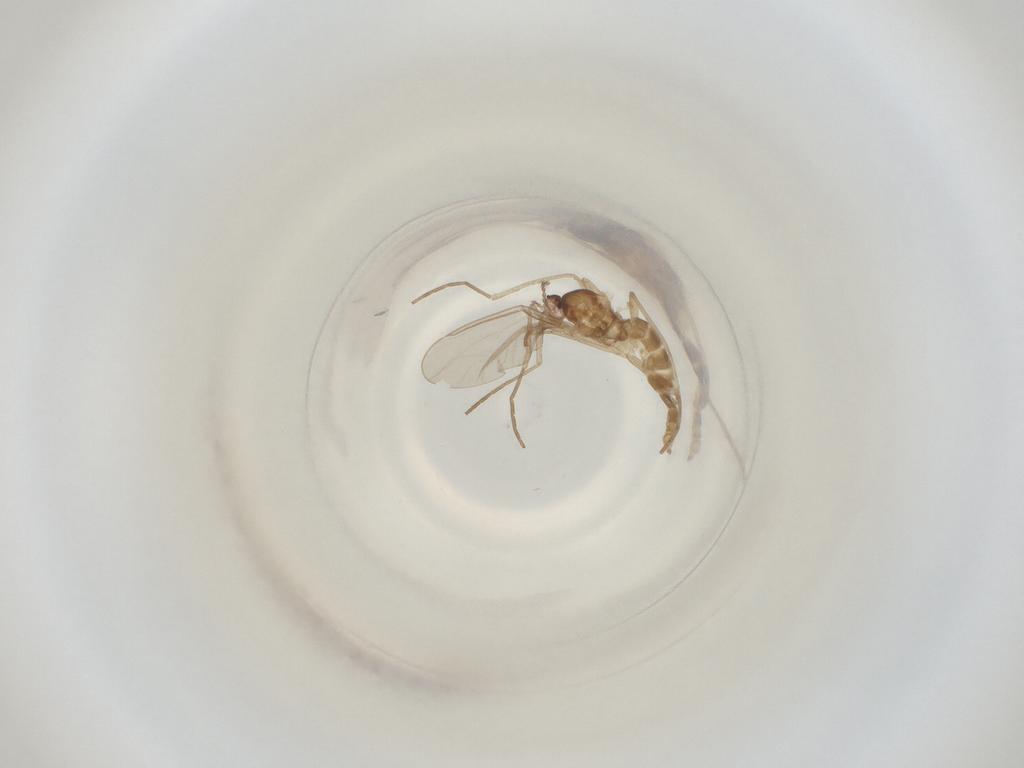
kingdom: Animalia
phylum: Arthropoda
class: Insecta
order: Diptera
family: Cecidomyiidae
